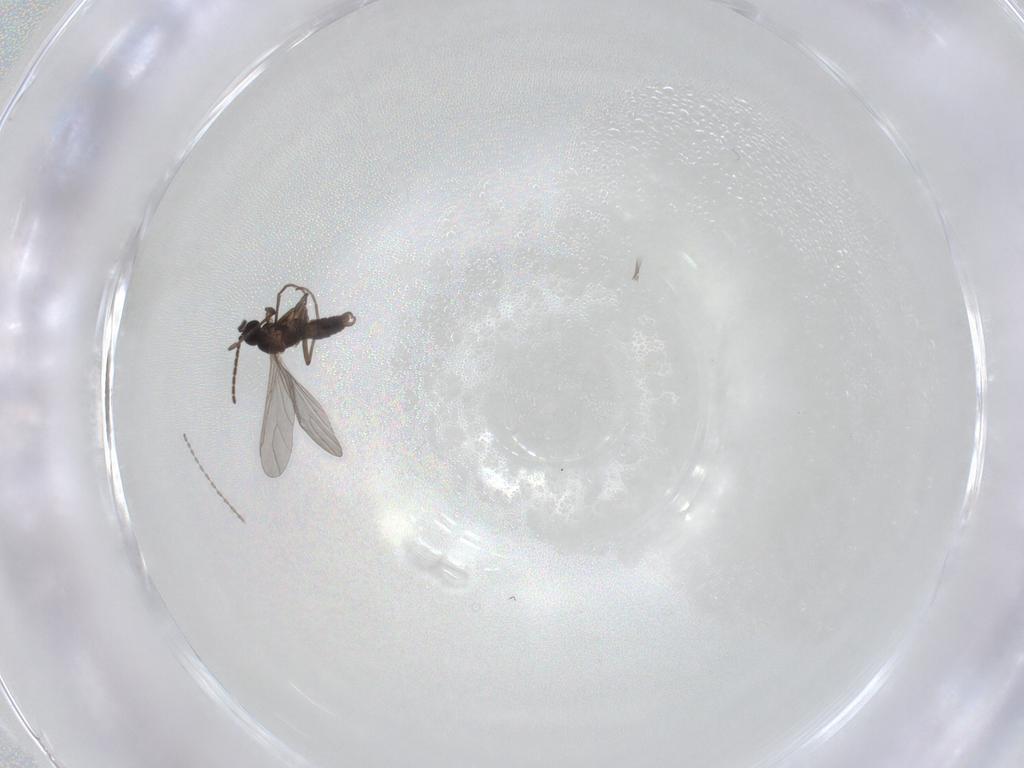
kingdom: Animalia
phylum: Arthropoda
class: Insecta
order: Diptera
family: Cecidomyiidae
